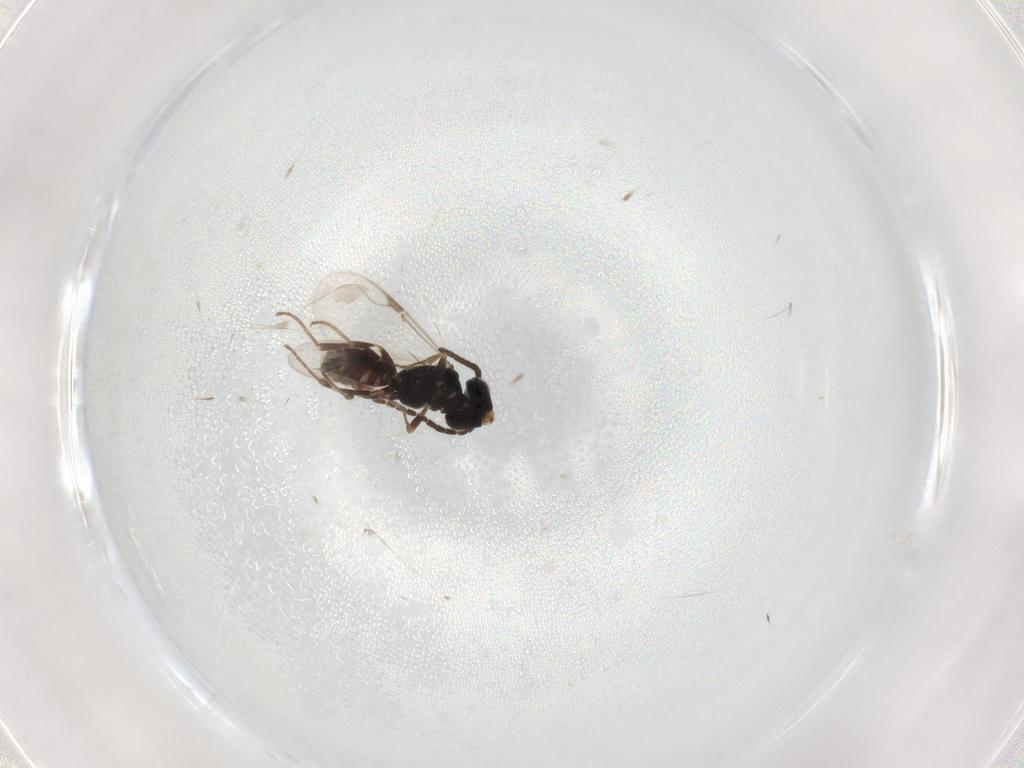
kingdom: Animalia
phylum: Arthropoda
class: Insecta
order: Hymenoptera
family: Dryinidae
